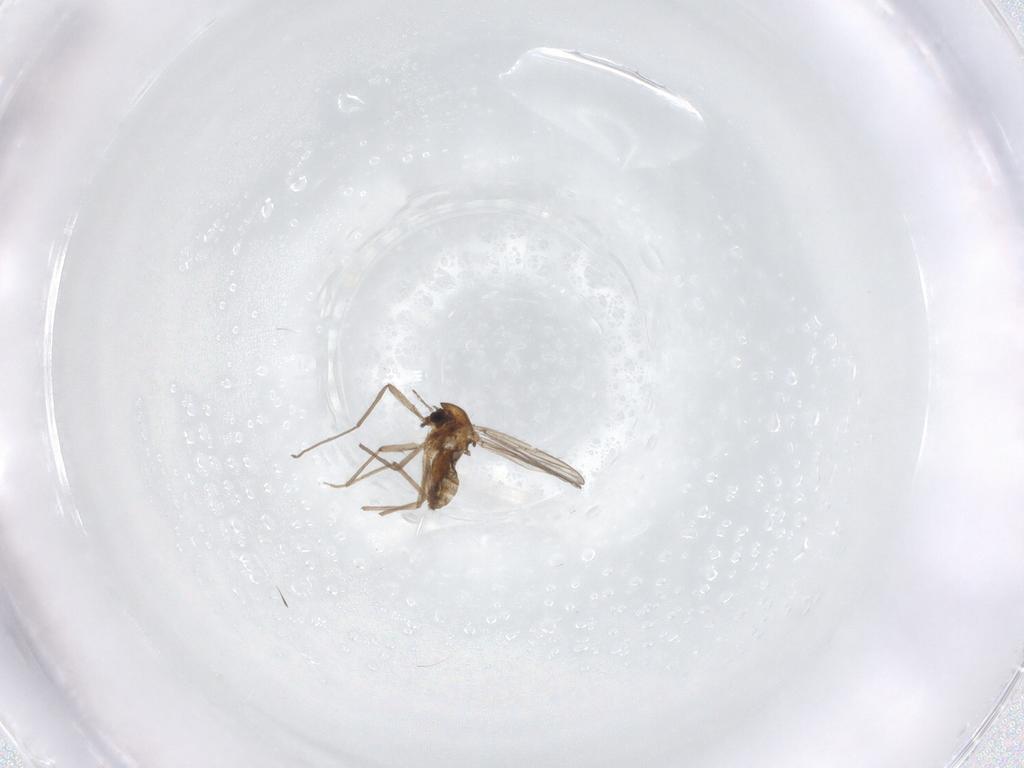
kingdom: Animalia
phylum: Arthropoda
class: Insecta
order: Diptera
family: Chironomidae
